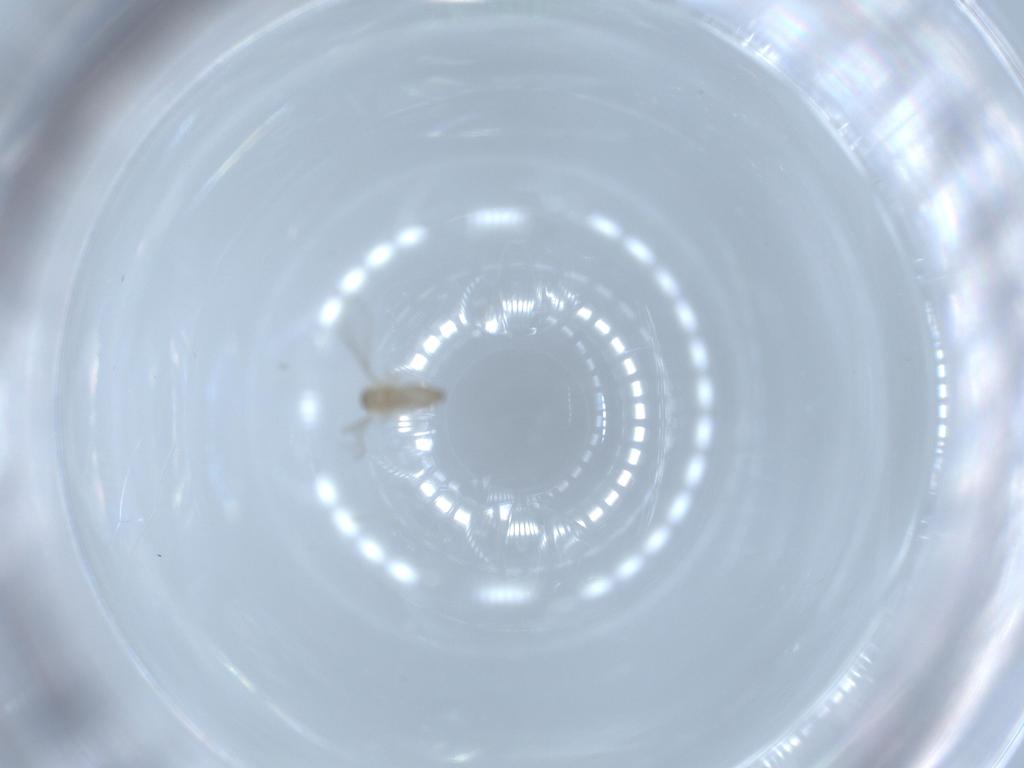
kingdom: Animalia
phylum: Arthropoda
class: Insecta
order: Diptera
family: Cecidomyiidae
